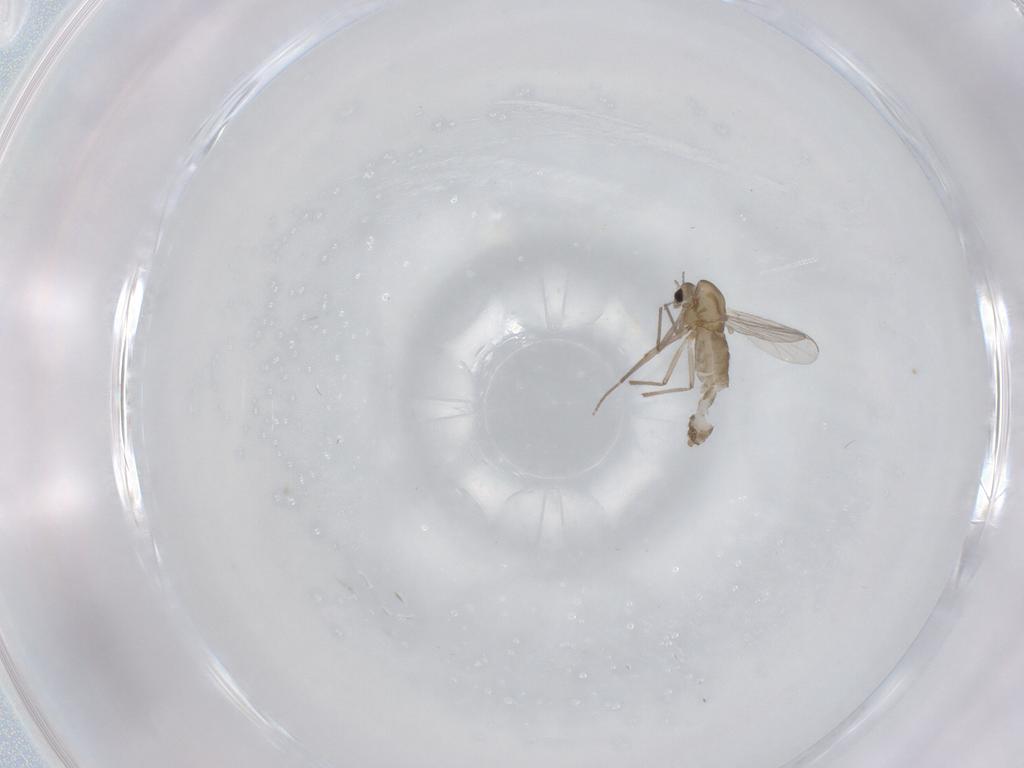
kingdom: Animalia
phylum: Arthropoda
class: Insecta
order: Diptera
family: Chironomidae
